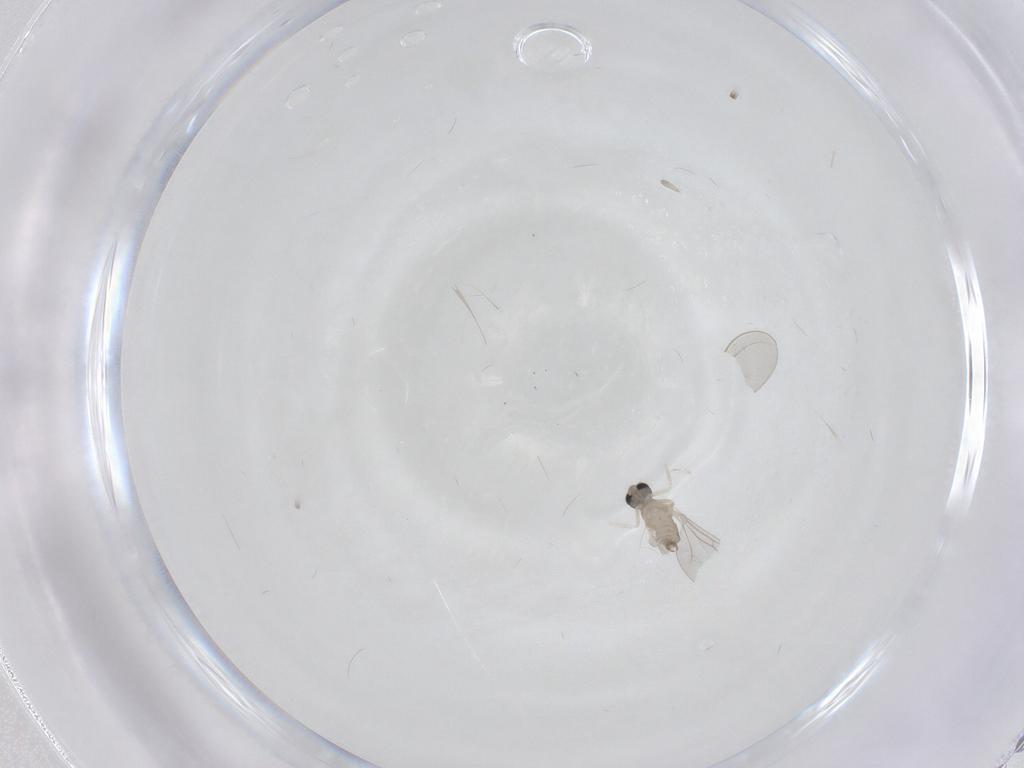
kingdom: Animalia
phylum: Arthropoda
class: Insecta
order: Diptera
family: Cecidomyiidae
